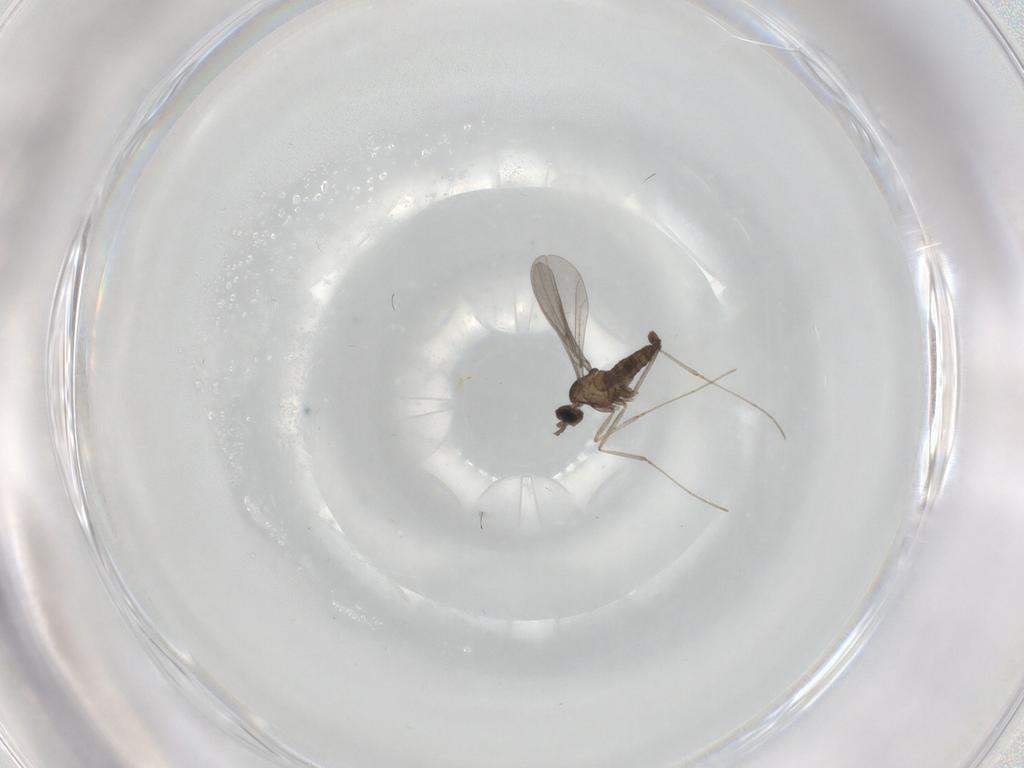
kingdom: Animalia
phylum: Arthropoda
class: Insecta
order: Diptera
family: Cecidomyiidae
